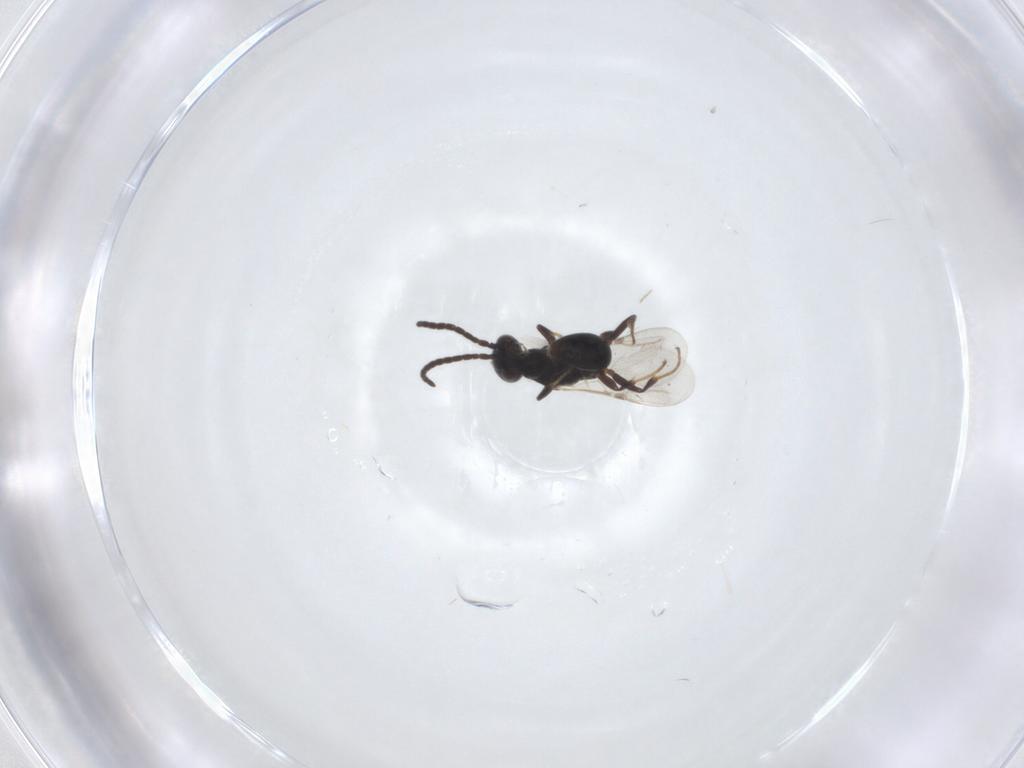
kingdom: Animalia
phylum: Arthropoda
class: Insecta
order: Hymenoptera
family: Bethylidae
